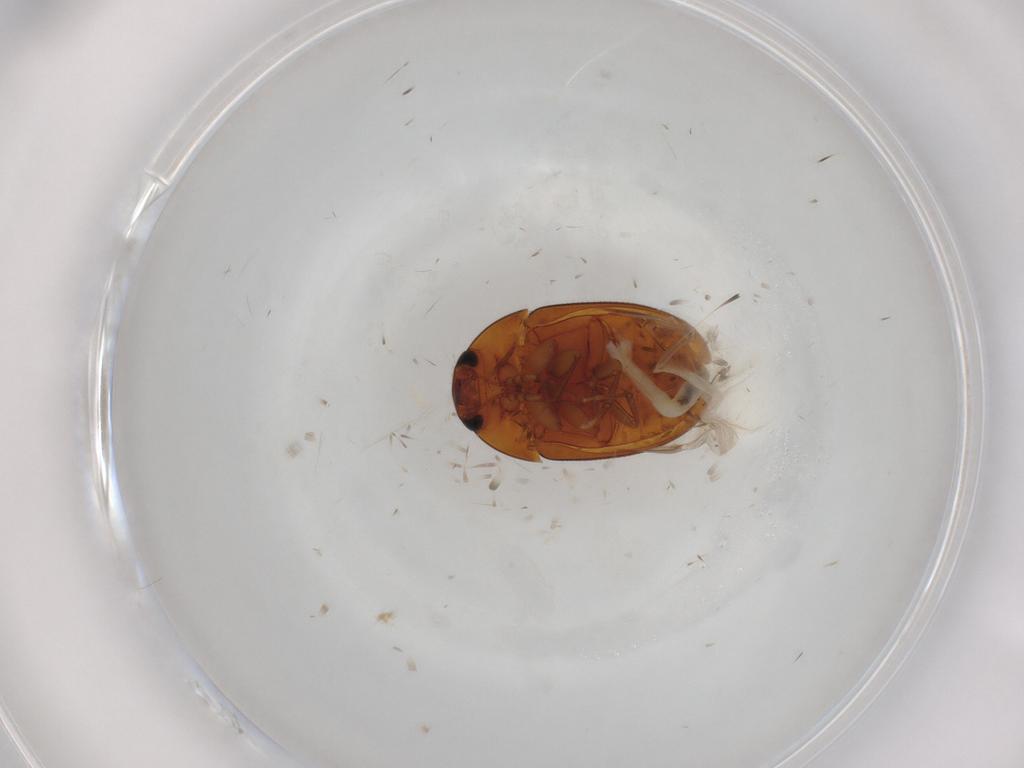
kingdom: Animalia
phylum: Arthropoda
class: Insecta
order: Coleoptera
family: Phalacridae
